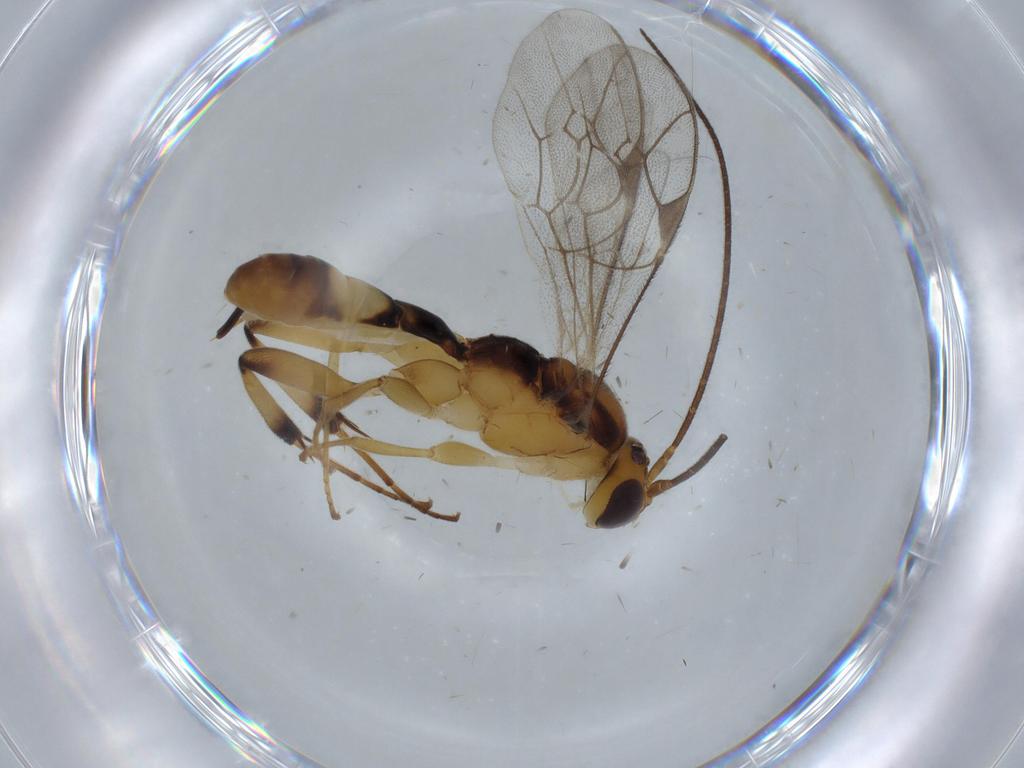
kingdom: Animalia
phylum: Arthropoda
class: Insecta
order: Hymenoptera
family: Ichneumonidae
